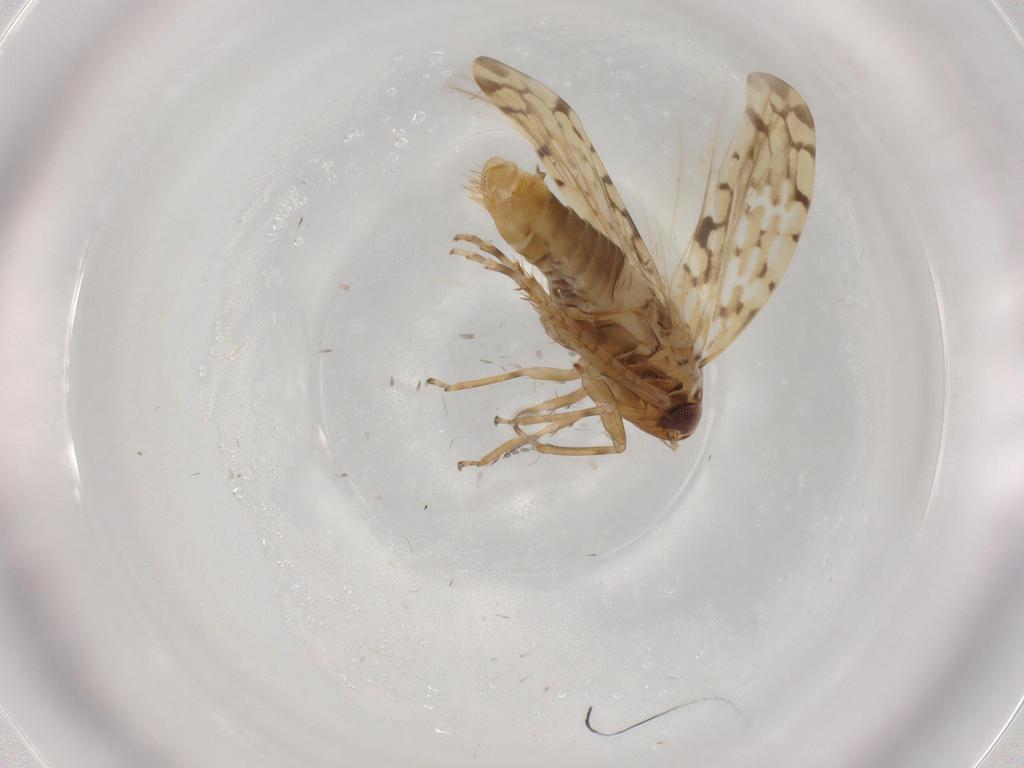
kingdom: Animalia
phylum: Arthropoda
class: Insecta
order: Hemiptera
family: Cicadellidae
